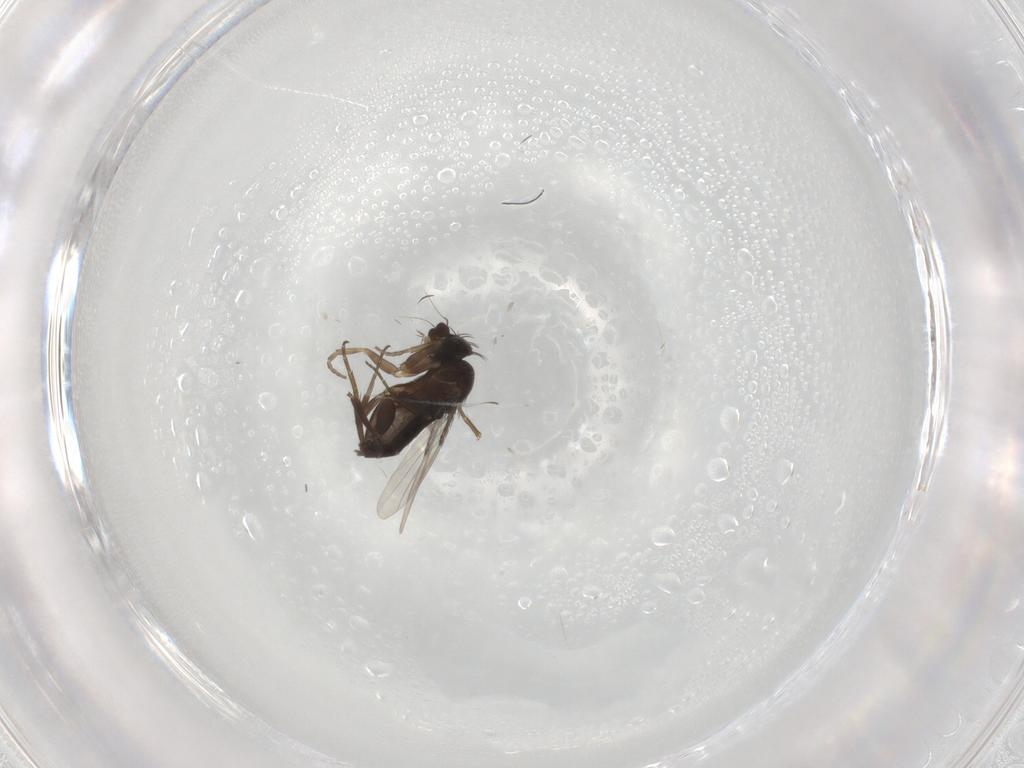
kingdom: Animalia
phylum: Arthropoda
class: Insecta
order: Diptera
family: Phoridae
